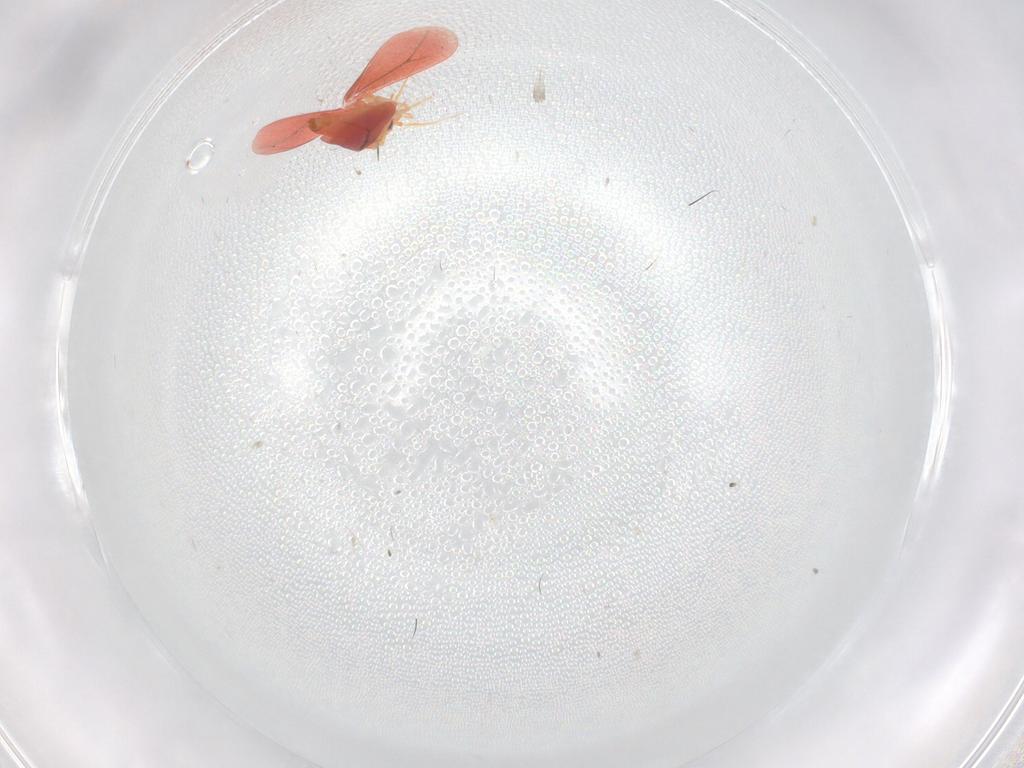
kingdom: Animalia
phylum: Arthropoda
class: Insecta
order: Hemiptera
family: Aleyrodidae
